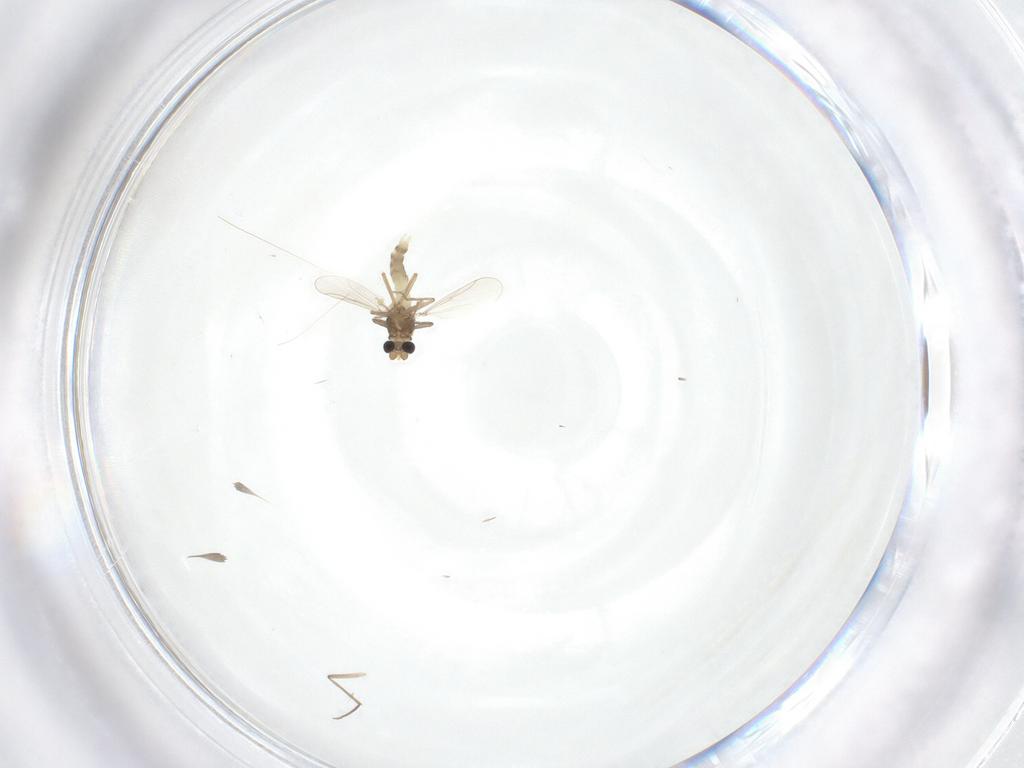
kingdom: Animalia
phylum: Arthropoda
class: Insecta
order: Diptera
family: Chironomidae
